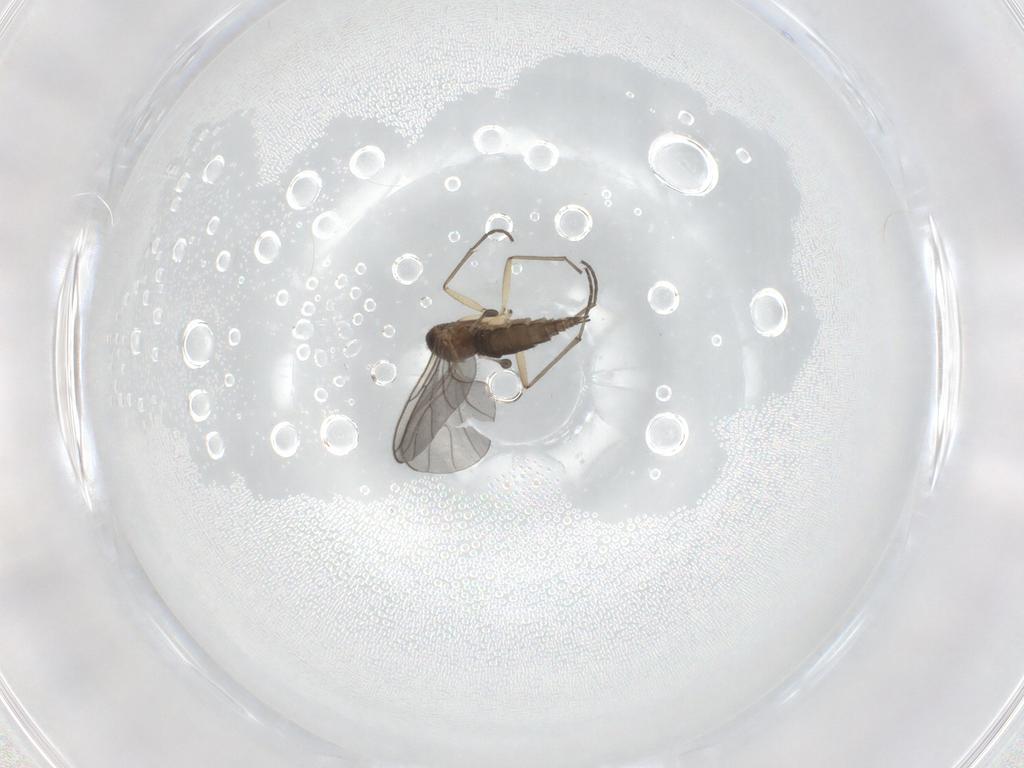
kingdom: Animalia
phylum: Arthropoda
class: Insecta
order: Diptera
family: Sciaridae
